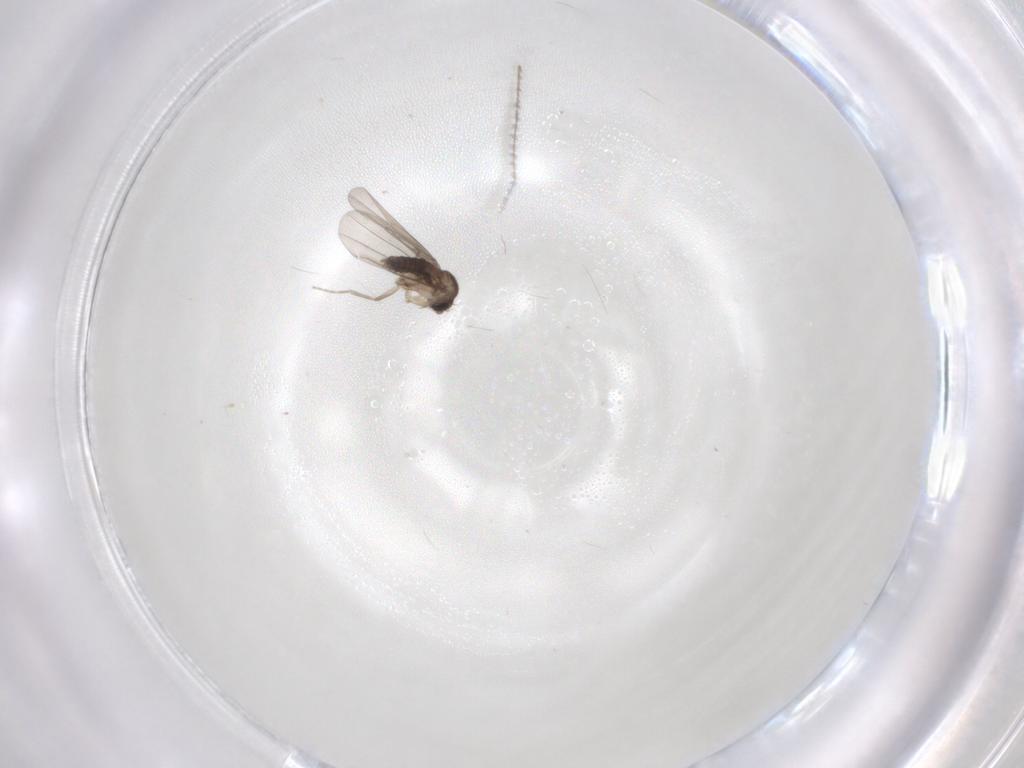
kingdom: Animalia
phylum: Arthropoda
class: Insecta
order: Diptera
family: Phoridae
